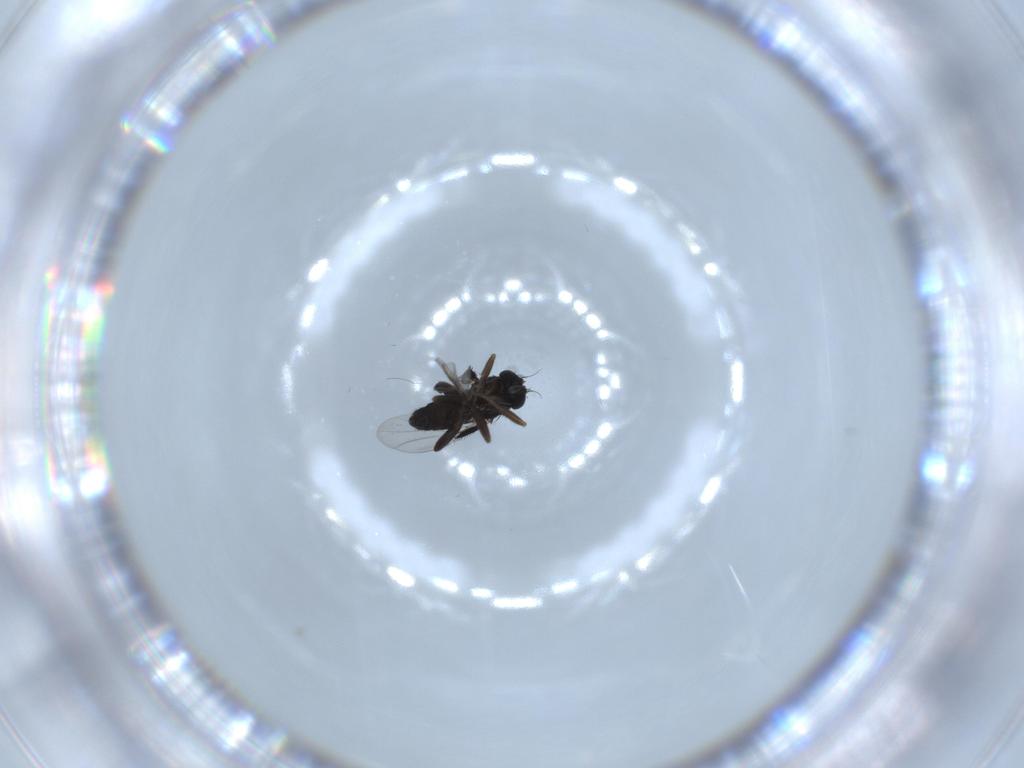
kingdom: Animalia
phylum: Arthropoda
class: Insecta
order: Diptera
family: Phoridae
